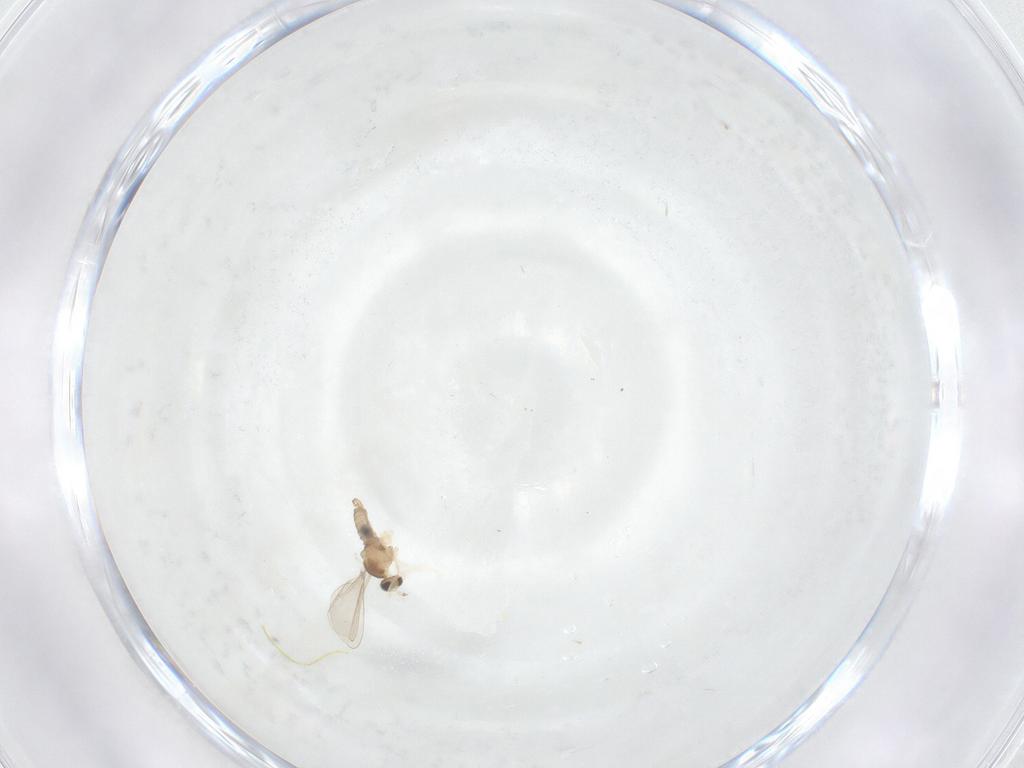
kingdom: Animalia
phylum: Arthropoda
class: Insecta
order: Diptera
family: Cecidomyiidae
